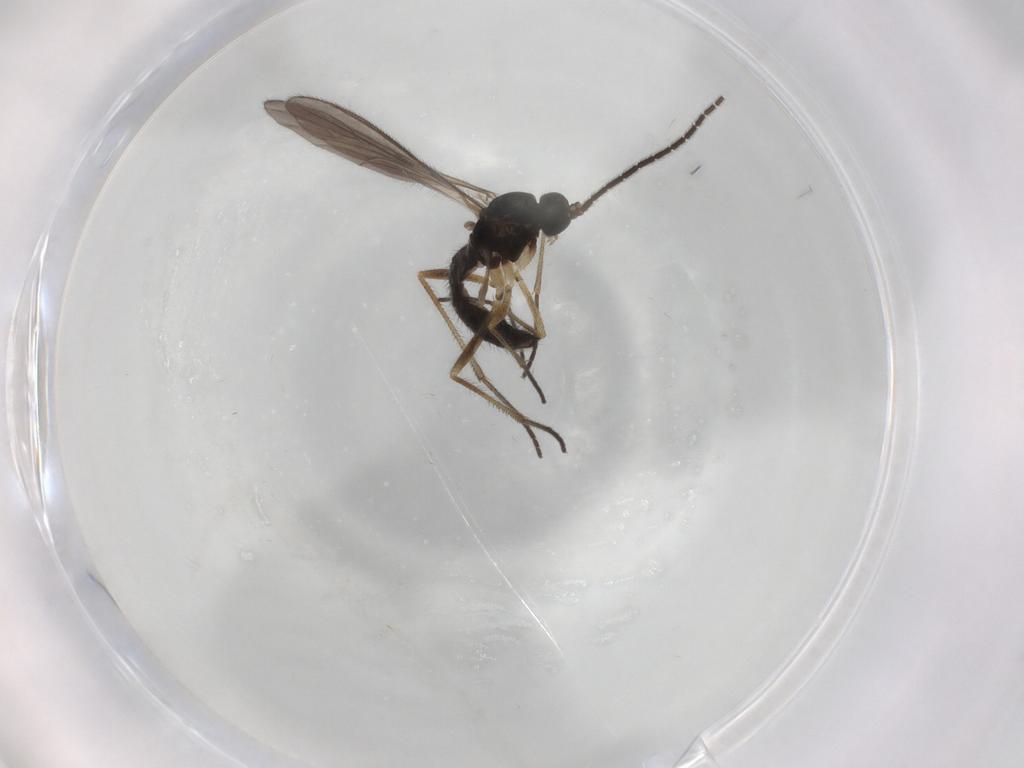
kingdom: Animalia
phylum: Arthropoda
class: Insecta
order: Diptera
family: Sciaridae
